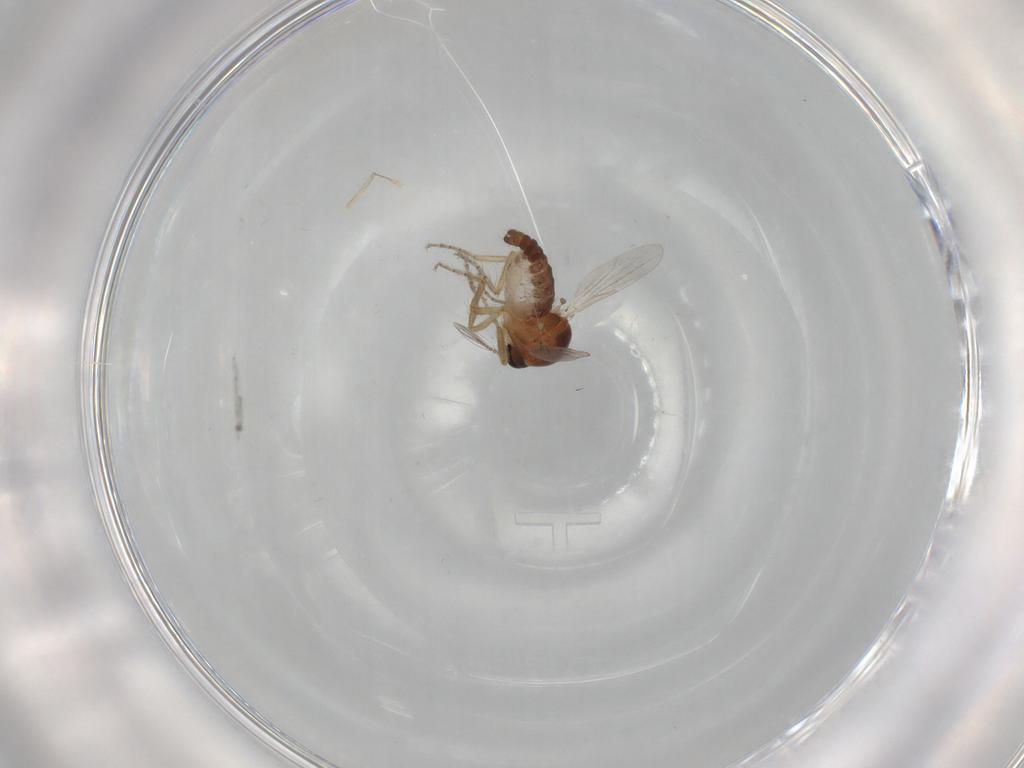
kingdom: Animalia
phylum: Arthropoda
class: Insecta
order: Diptera
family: Ceratopogonidae
